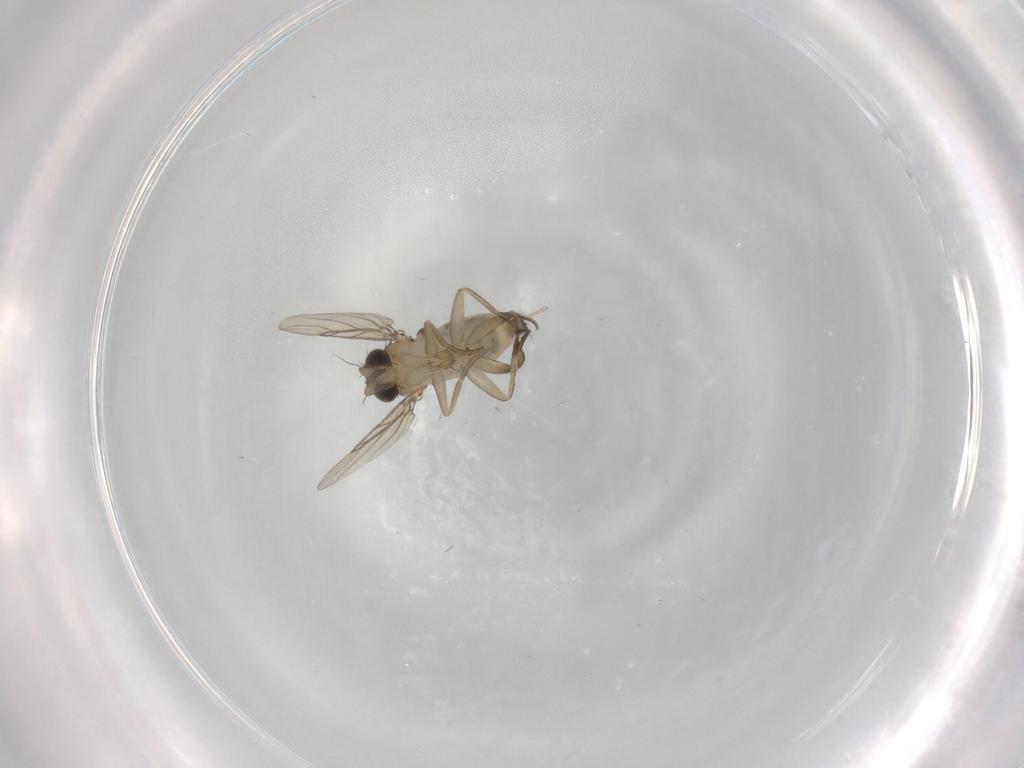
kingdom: Animalia
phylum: Arthropoda
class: Insecta
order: Diptera
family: Phoridae
